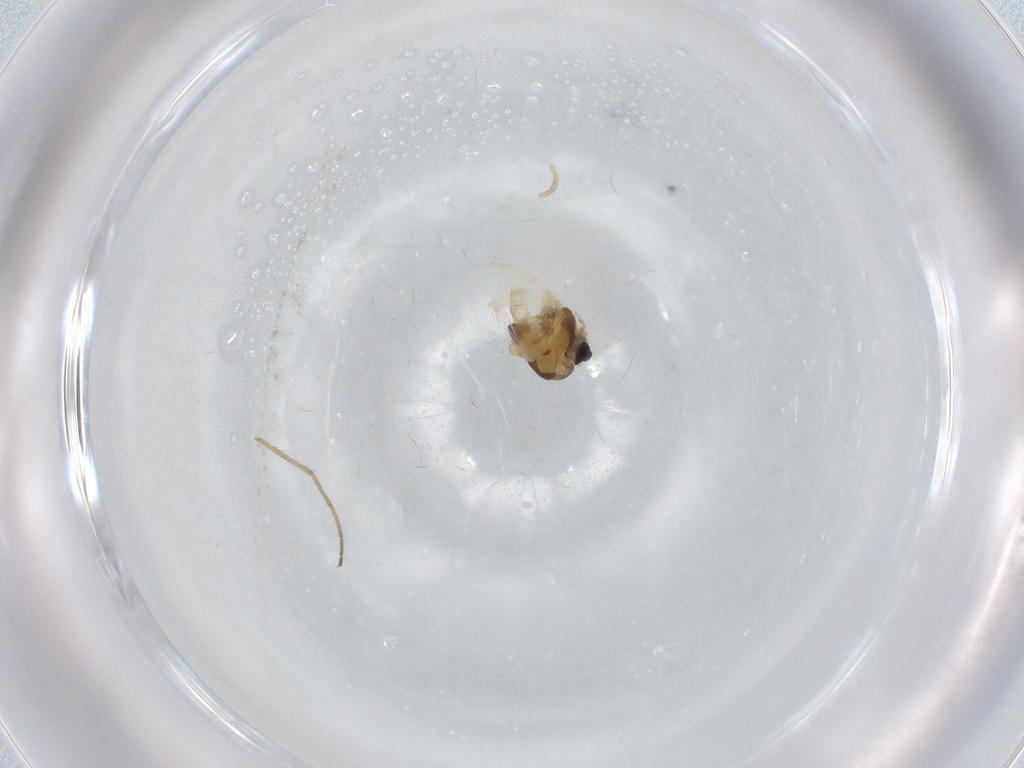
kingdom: Animalia
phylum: Arthropoda
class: Insecta
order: Diptera
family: Chironomidae
